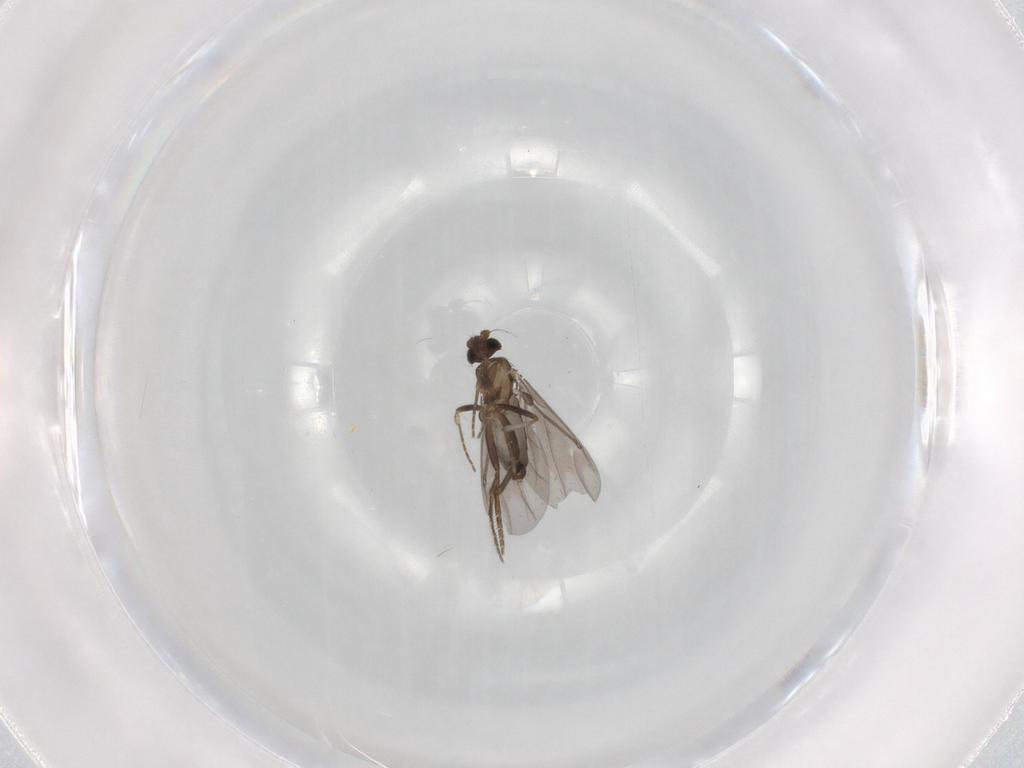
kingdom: Animalia
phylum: Arthropoda
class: Insecta
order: Diptera
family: Phoridae
